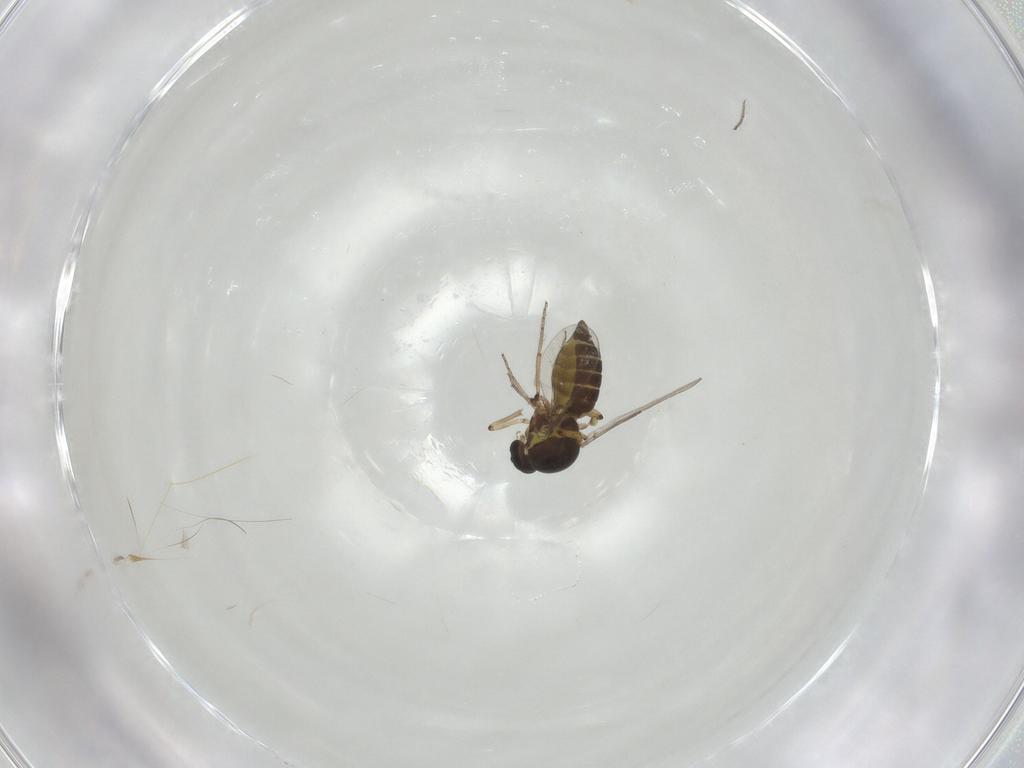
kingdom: Animalia
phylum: Arthropoda
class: Insecta
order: Diptera
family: Ceratopogonidae
